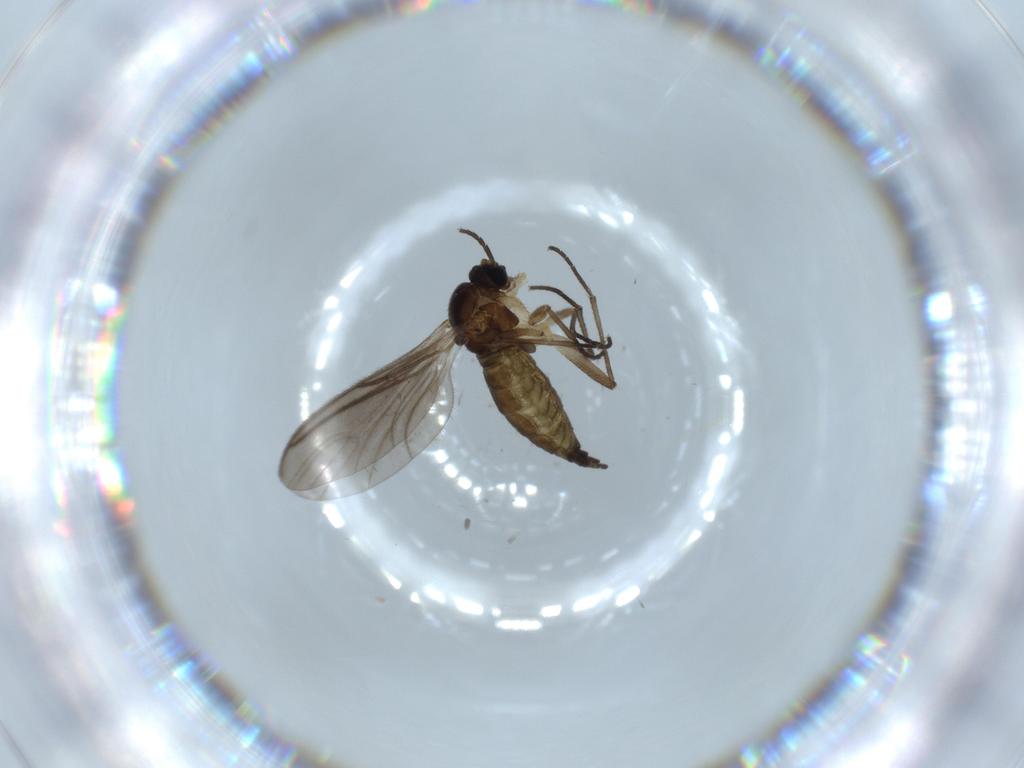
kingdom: Animalia
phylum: Arthropoda
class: Insecta
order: Diptera
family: Sciaridae
